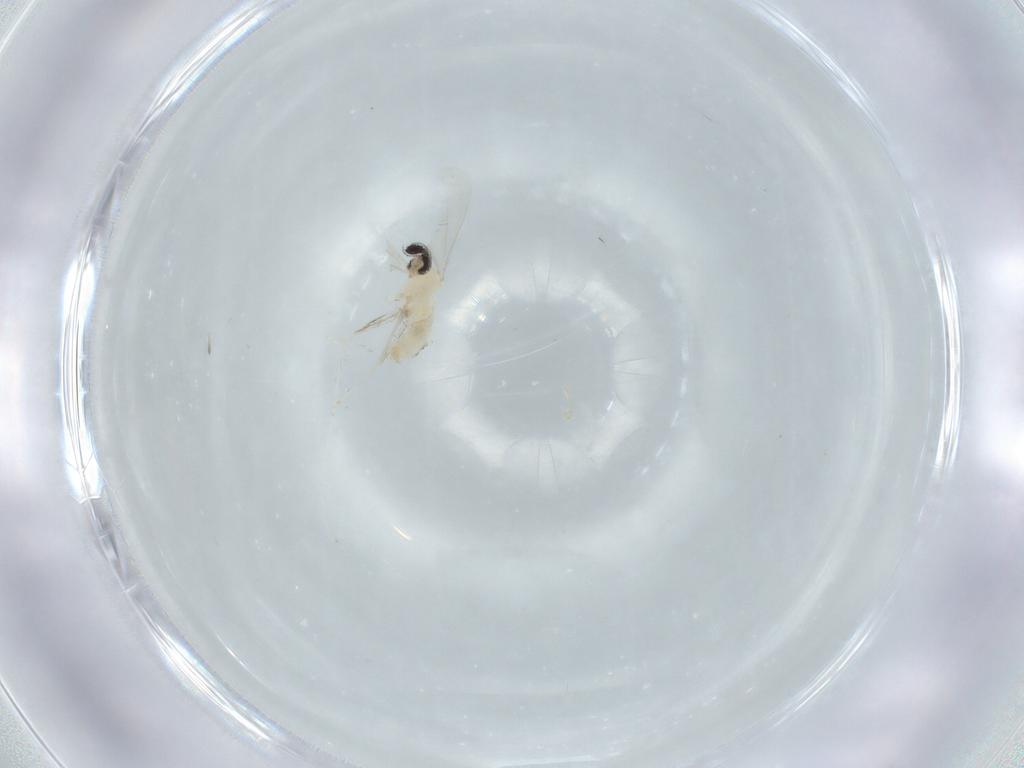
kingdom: Animalia
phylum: Arthropoda
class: Insecta
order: Diptera
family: Cecidomyiidae
